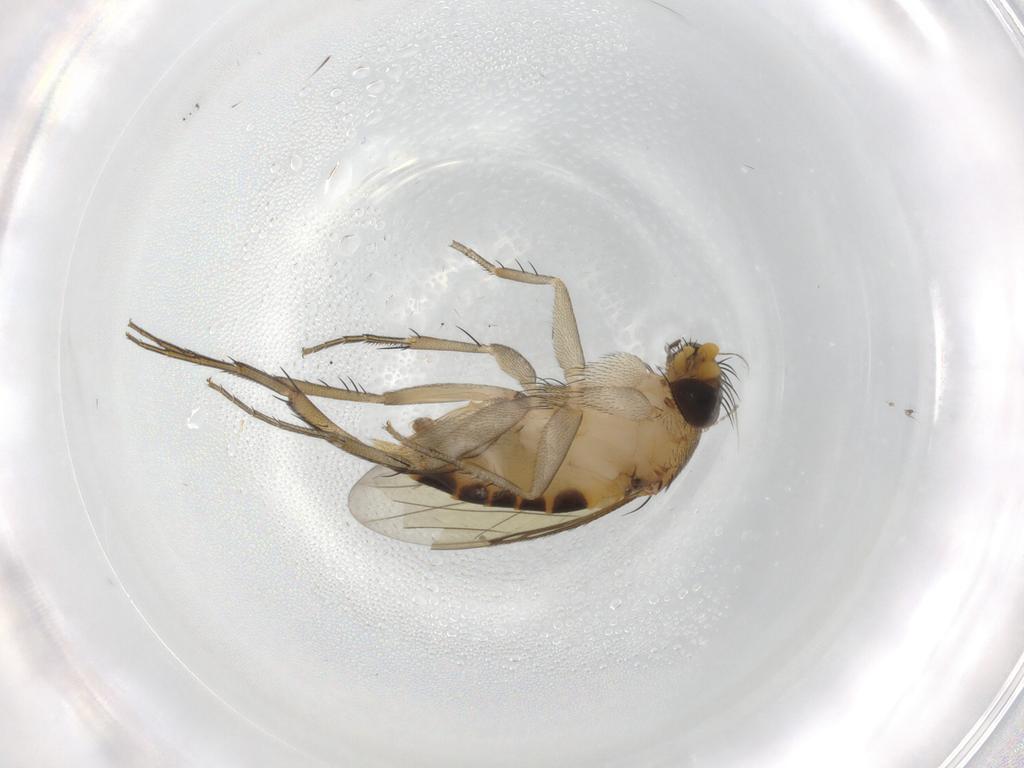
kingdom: Animalia
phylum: Arthropoda
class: Insecta
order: Diptera
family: Phoridae
